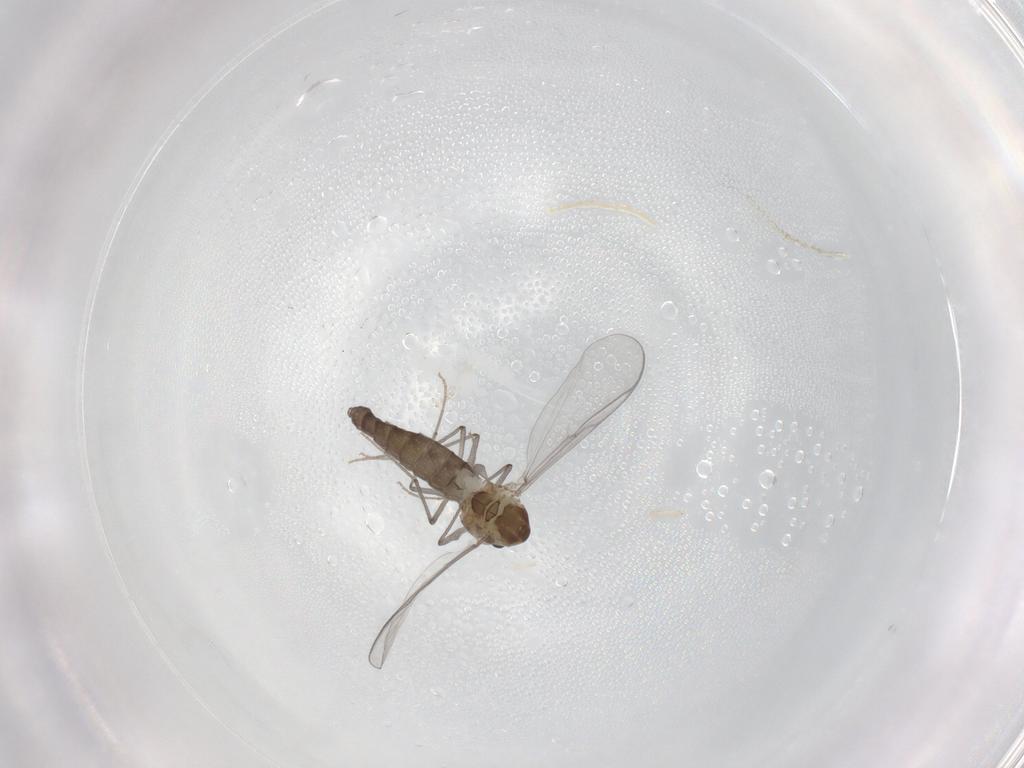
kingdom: Animalia
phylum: Arthropoda
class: Insecta
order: Diptera
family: Chironomidae
